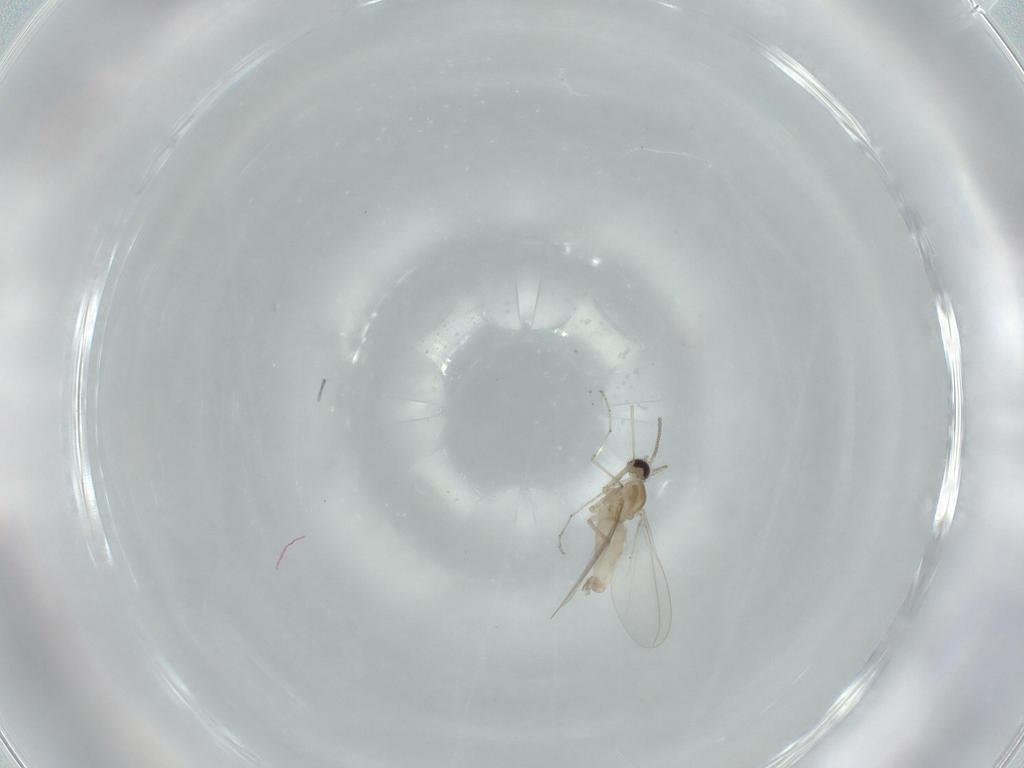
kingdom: Animalia
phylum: Arthropoda
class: Insecta
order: Diptera
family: Cecidomyiidae
